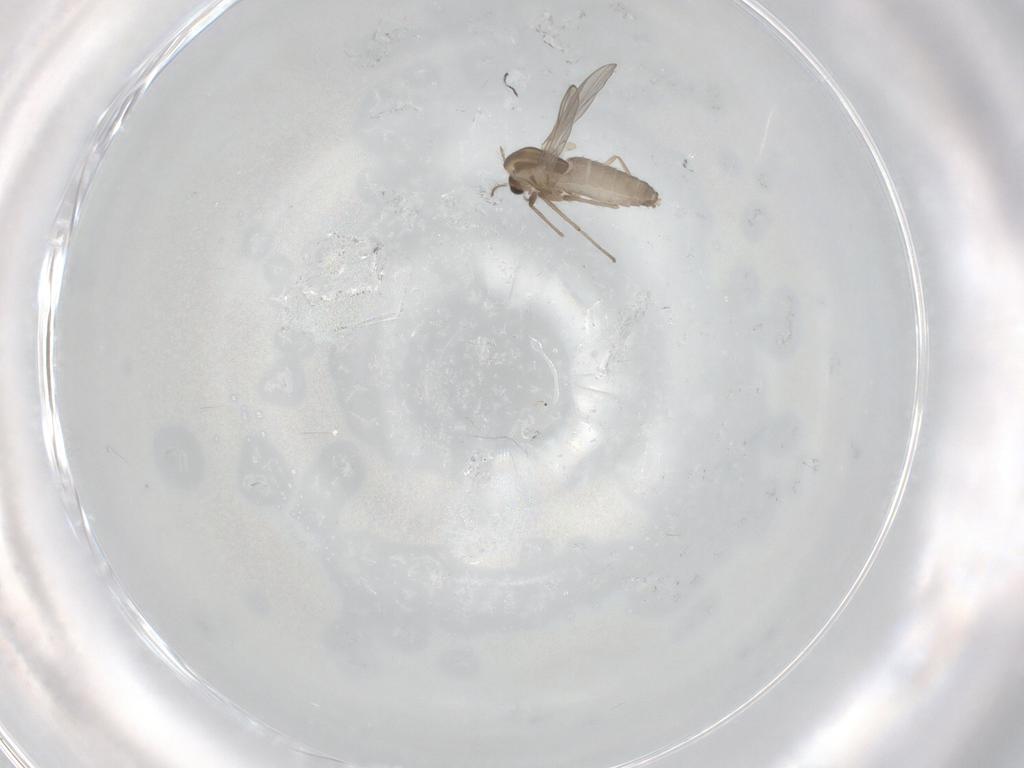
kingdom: Animalia
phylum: Arthropoda
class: Insecta
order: Diptera
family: Chironomidae
